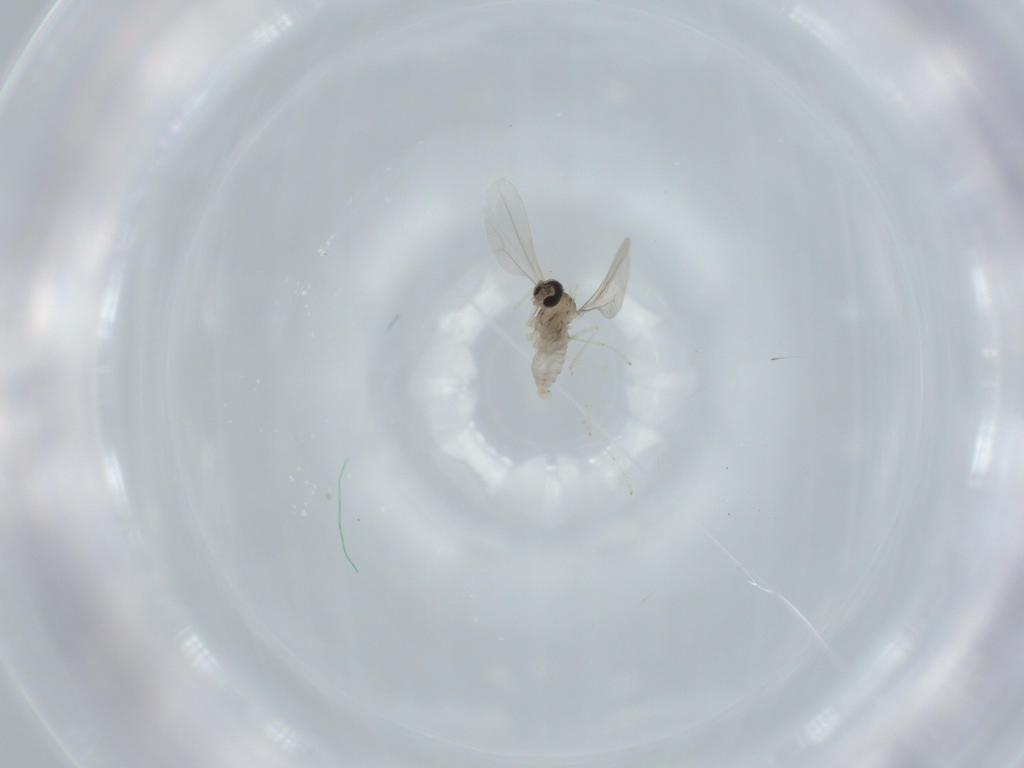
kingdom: Animalia
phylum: Arthropoda
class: Insecta
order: Diptera
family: Cecidomyiidae
